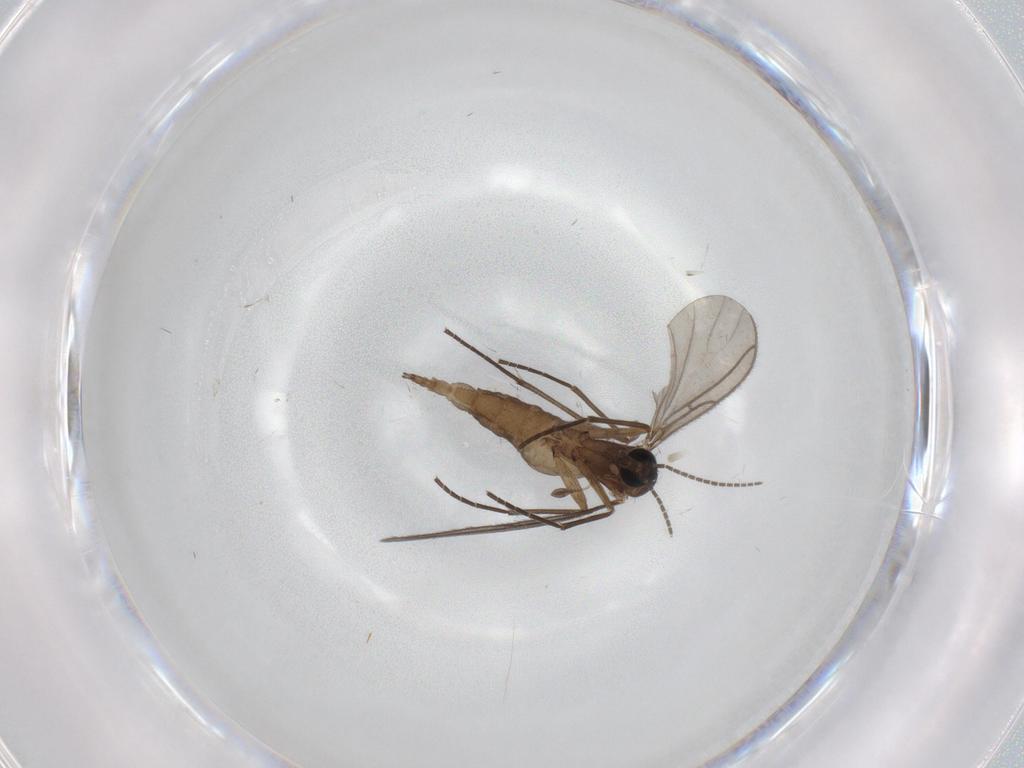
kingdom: Animalia
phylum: Arthropoda
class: Insecta
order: Diptera
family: Sciaridae
